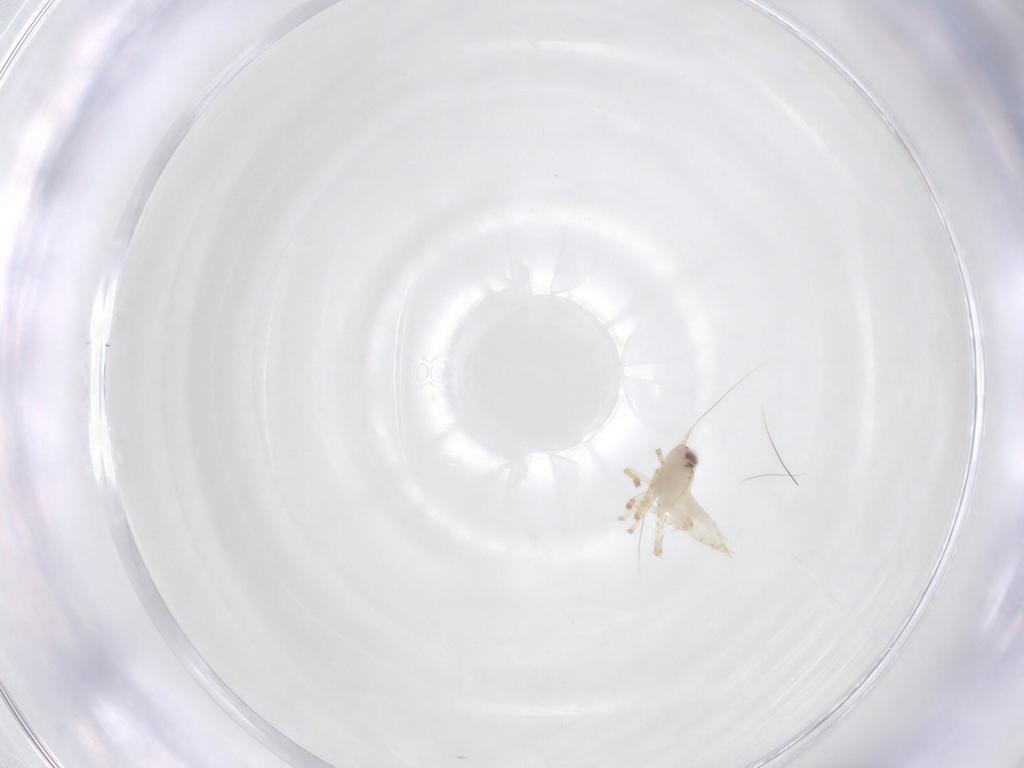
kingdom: Animalia
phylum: Arthropoda
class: Insecta
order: Hemiptera
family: Cicadellidae
